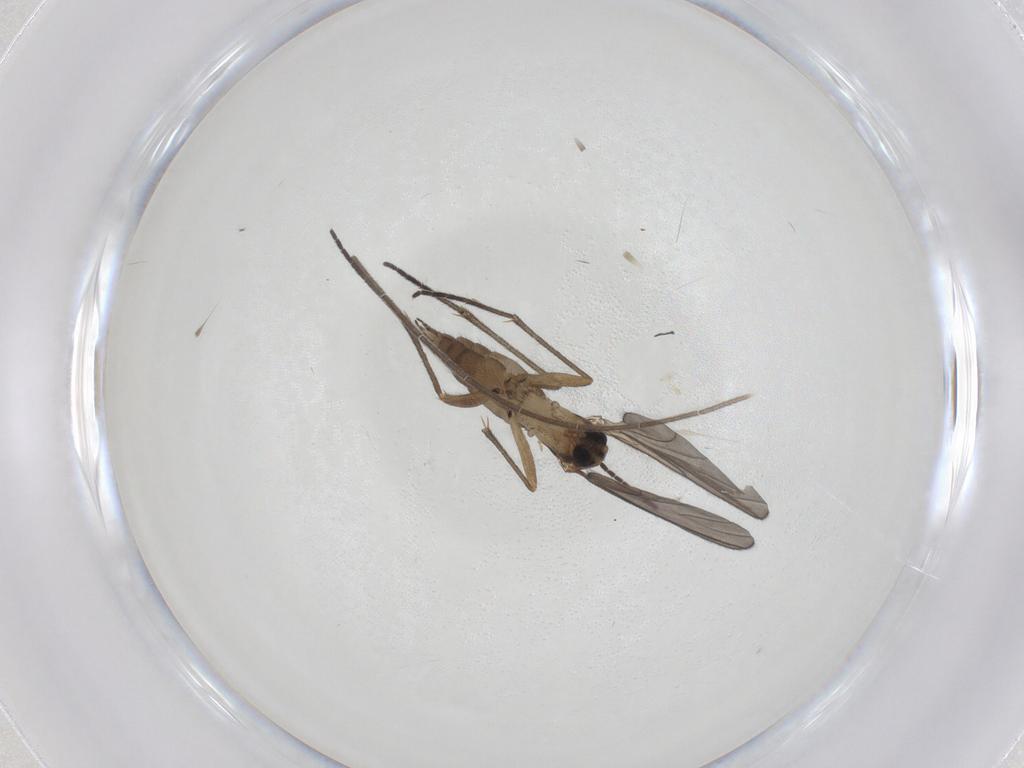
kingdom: Animalia
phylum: Arthropoda
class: Insecta
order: Diptera
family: Sciaridae
